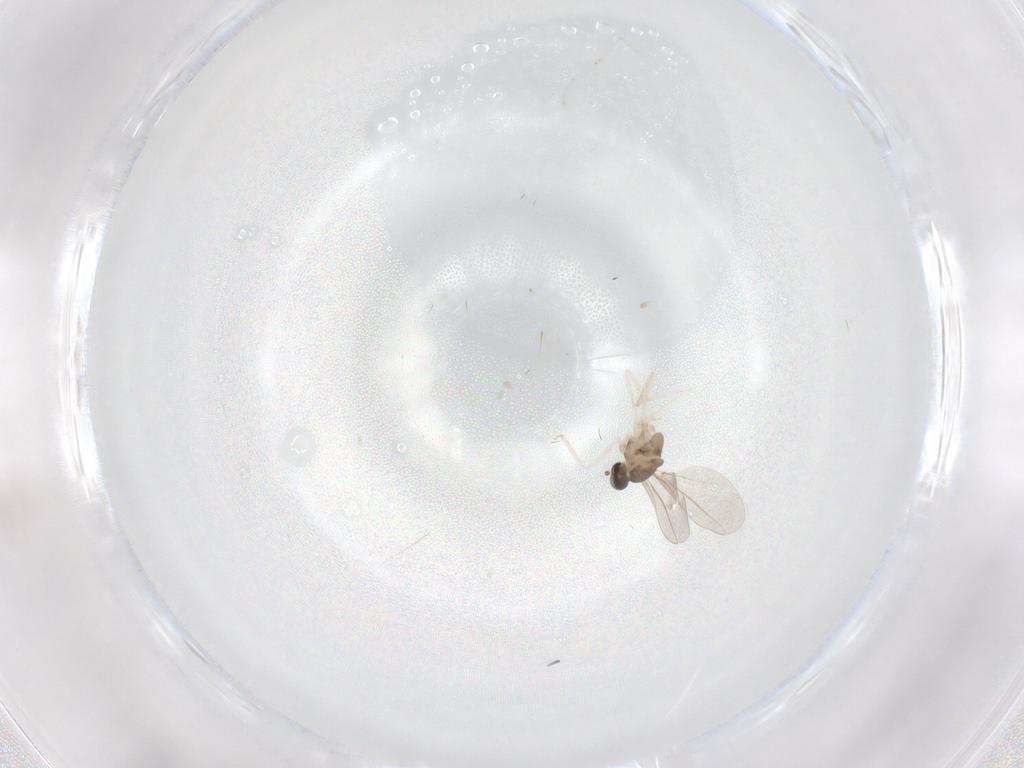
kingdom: Animalia
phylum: Arthropoda
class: Insecta
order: Diptera
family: Cecidomyiidae
